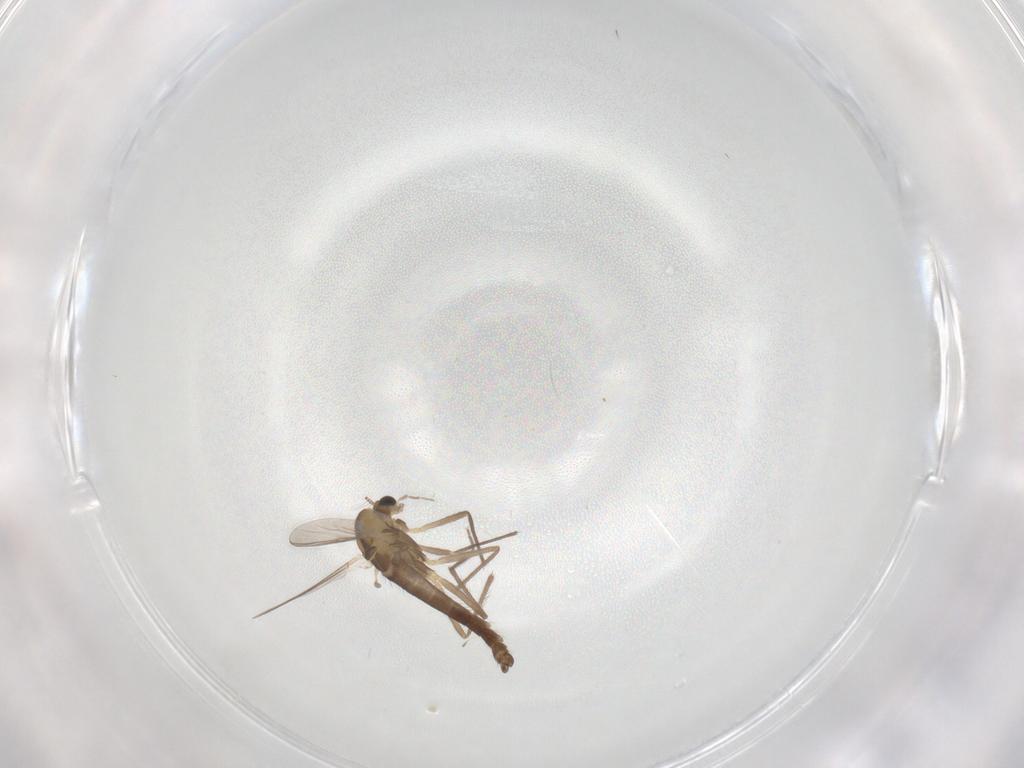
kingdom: Animalia
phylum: Arthropoda
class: Insecta
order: Diptera
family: Chironomidae
